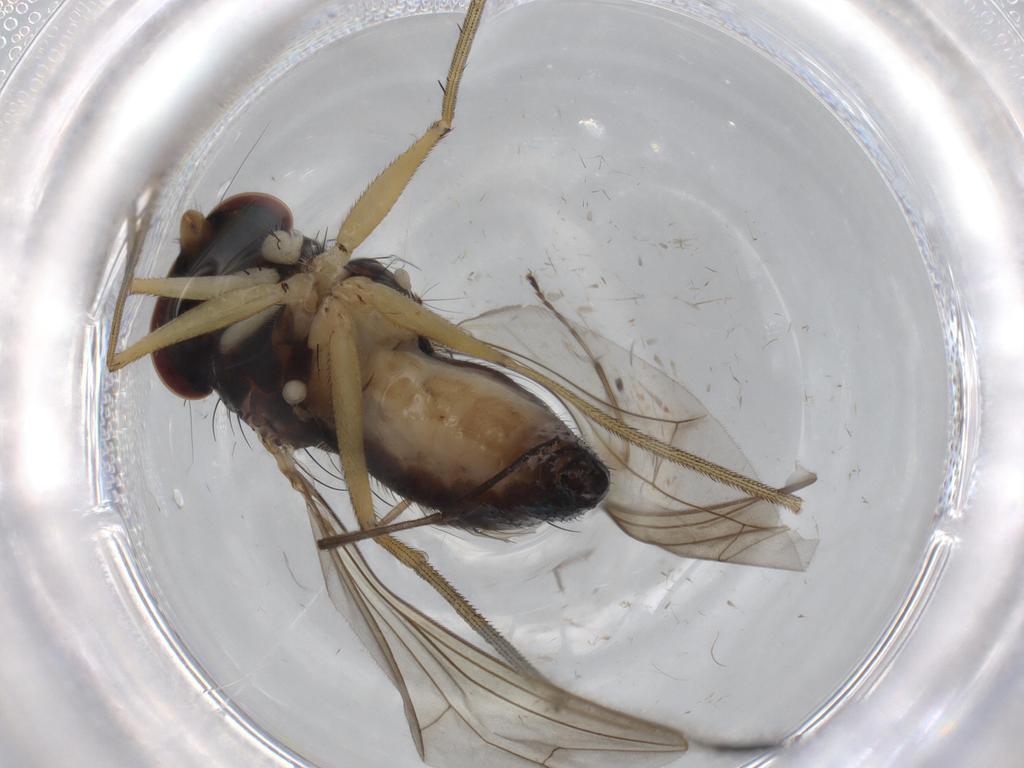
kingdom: Animalia
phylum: Arthropoda
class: Insecta
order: Diptera
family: Dolichopodidae
